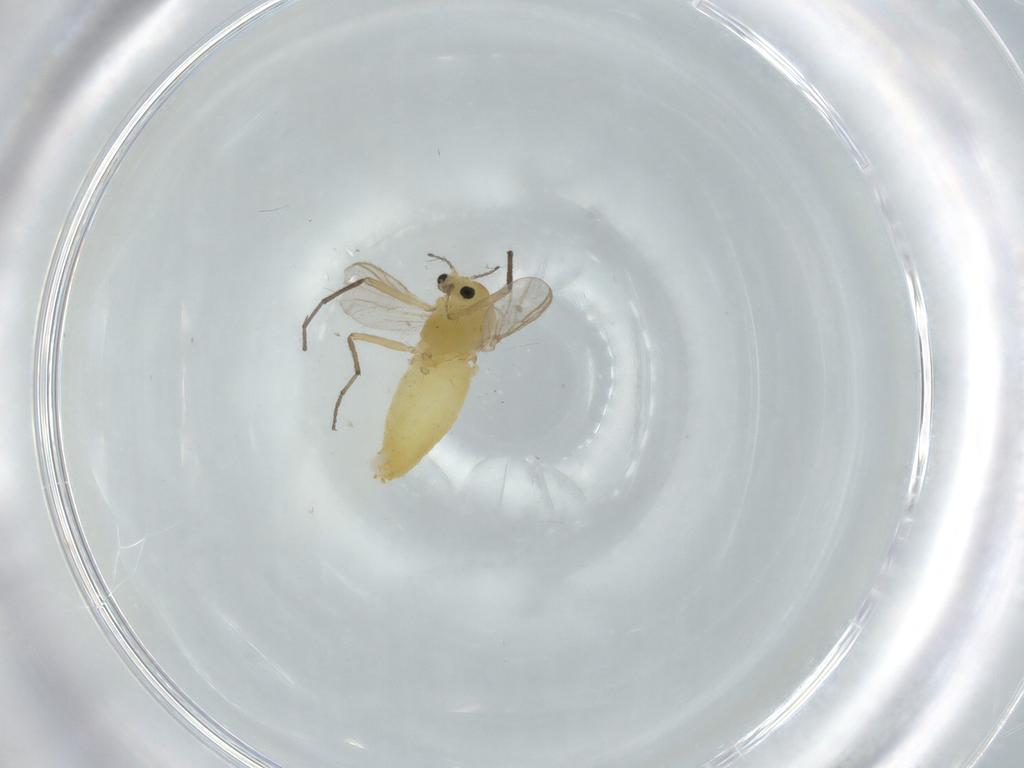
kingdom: Animalia
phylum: Arthropoda
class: Insecta
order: Diptera
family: Chironomidae
